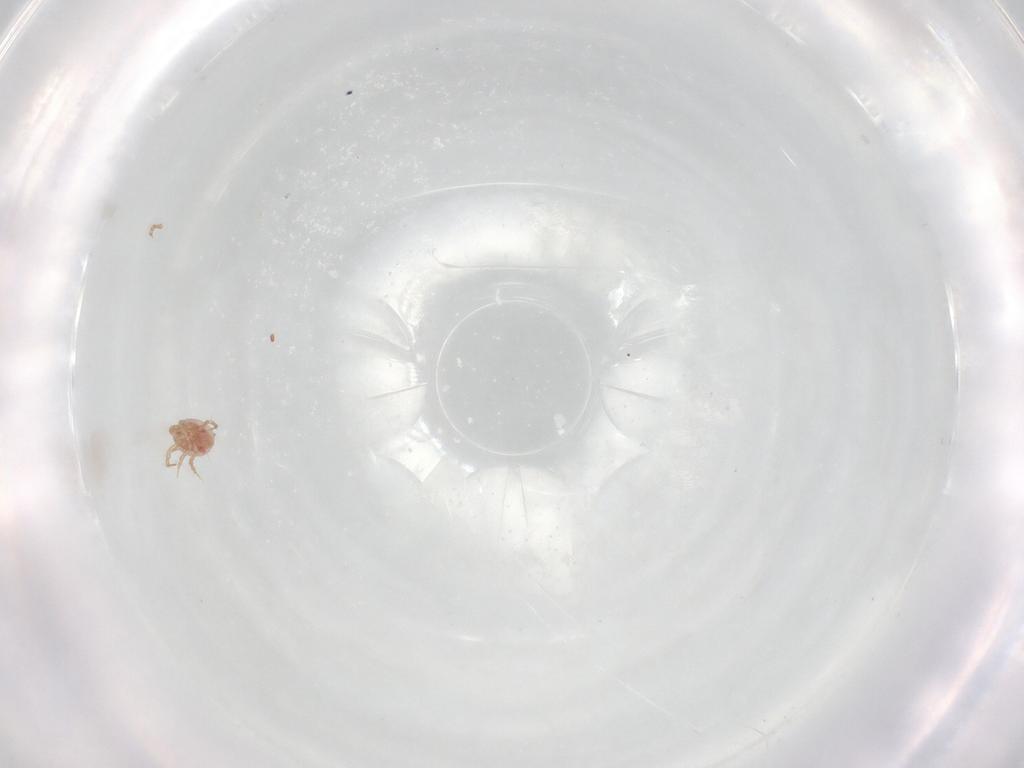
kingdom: Animalia
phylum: Arthropoda
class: Arachnida
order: Mesostigmata
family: Phytoseiidae
